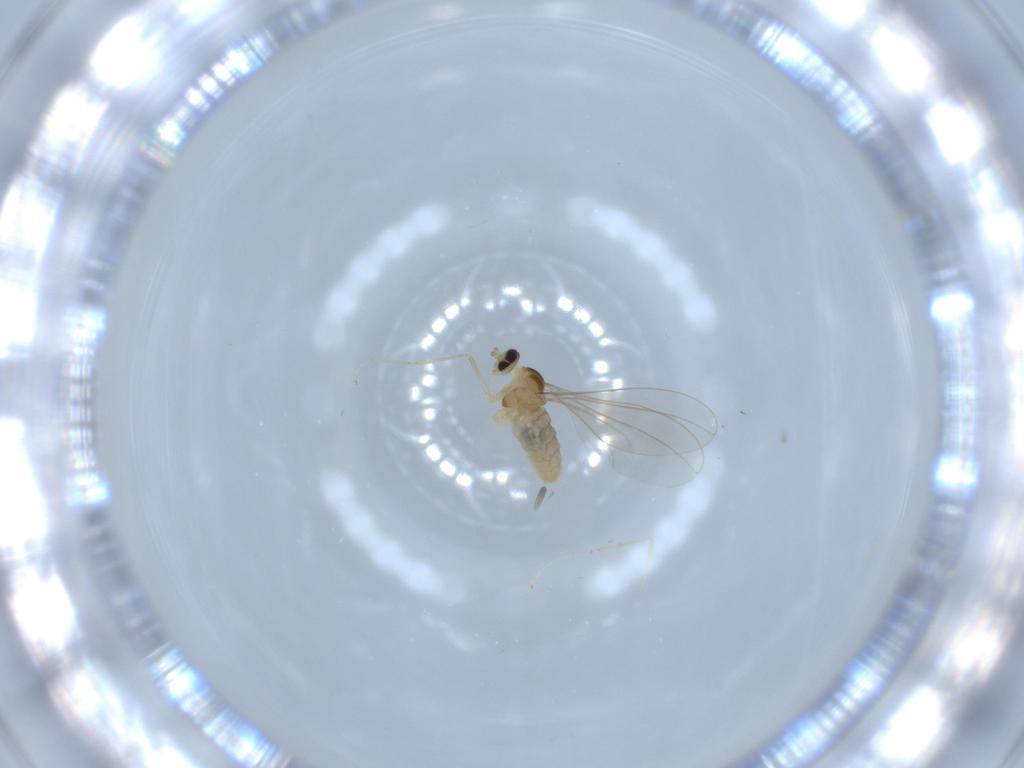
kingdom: Animalia
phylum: Arthropoda
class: Insecta
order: Diptera
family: Cecidomyiidae
